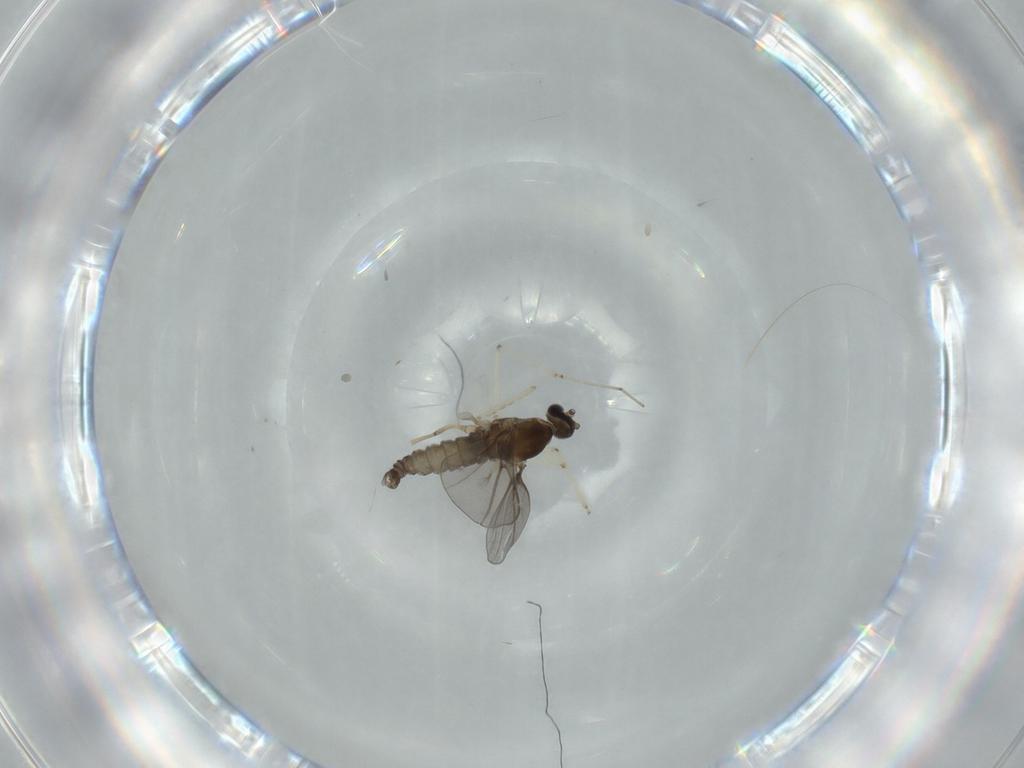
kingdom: Animalia
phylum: Arthropoda
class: Insecta
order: Diptera
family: Cecidomyiidae
